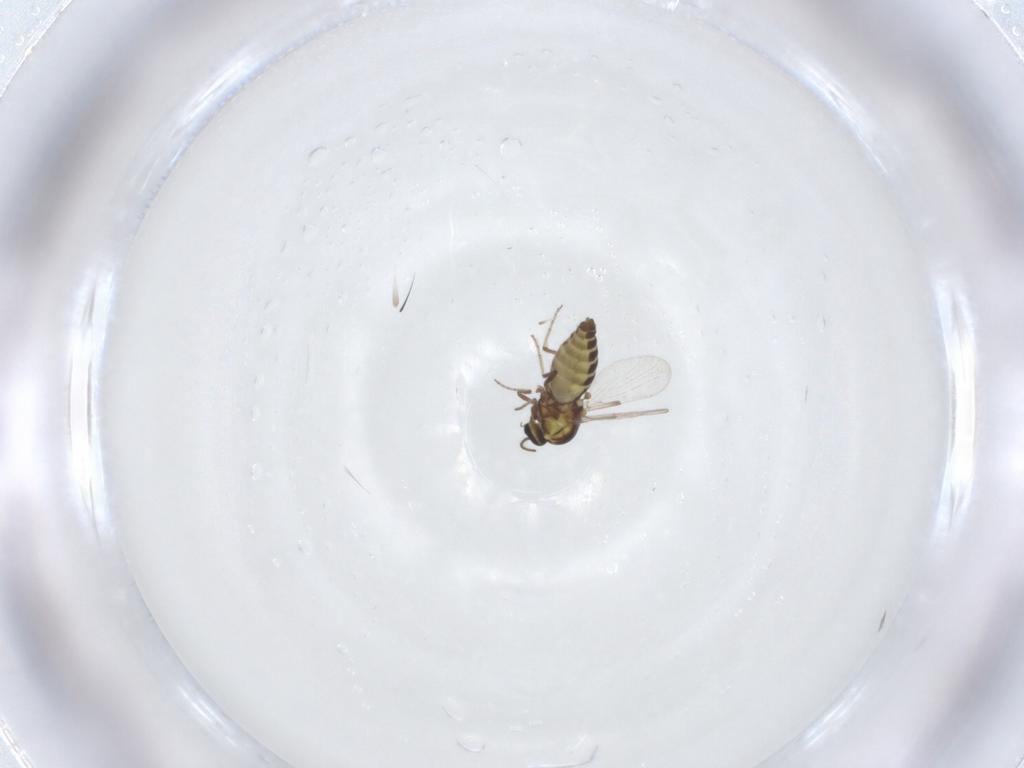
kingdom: Animalia
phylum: Arthropoda
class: Insecta
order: Diptera
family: Ceratopogonidae
